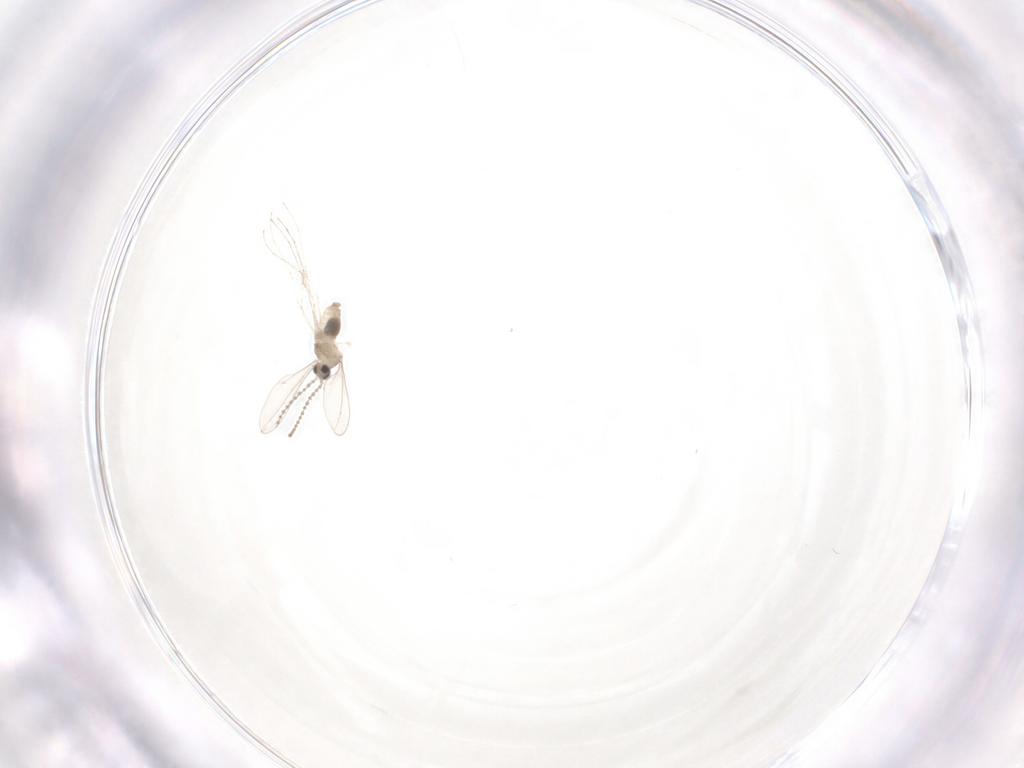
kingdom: Animalia
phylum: Arthropoda
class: Insecta
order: Diptera
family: Cecidomyiidae
